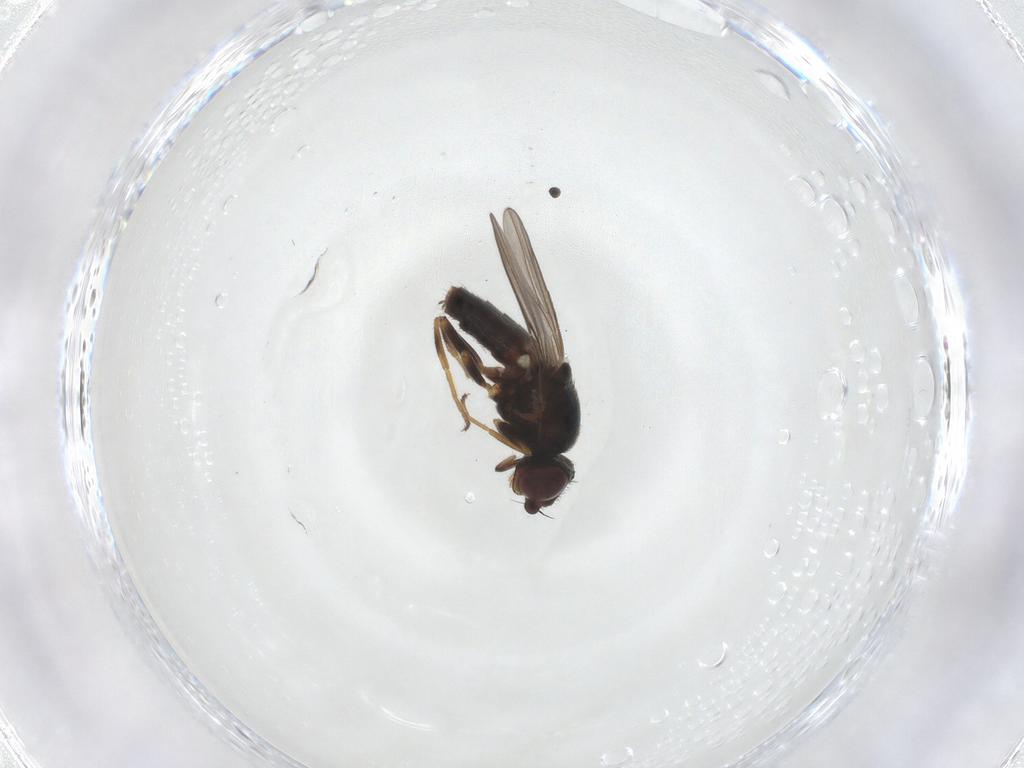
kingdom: Animalia
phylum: Arthropoda
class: Insecta
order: Diptera
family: Chloropidae
